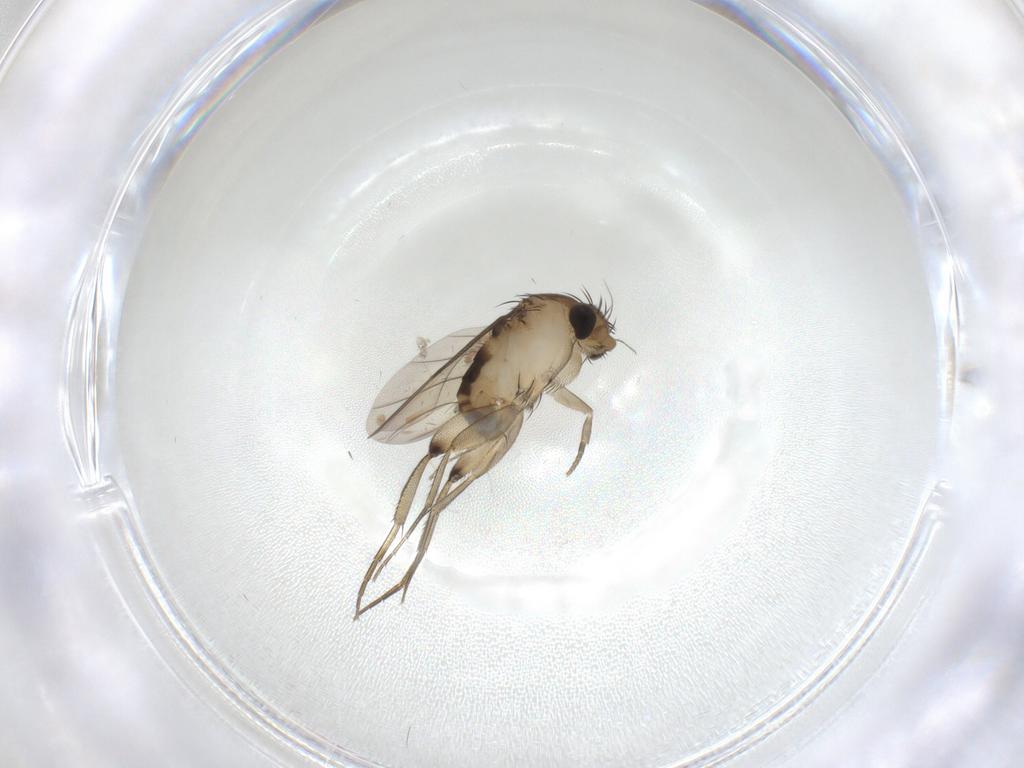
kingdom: Animalia
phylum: Arthropoda
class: Insecta
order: Diptera
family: Phoridae
